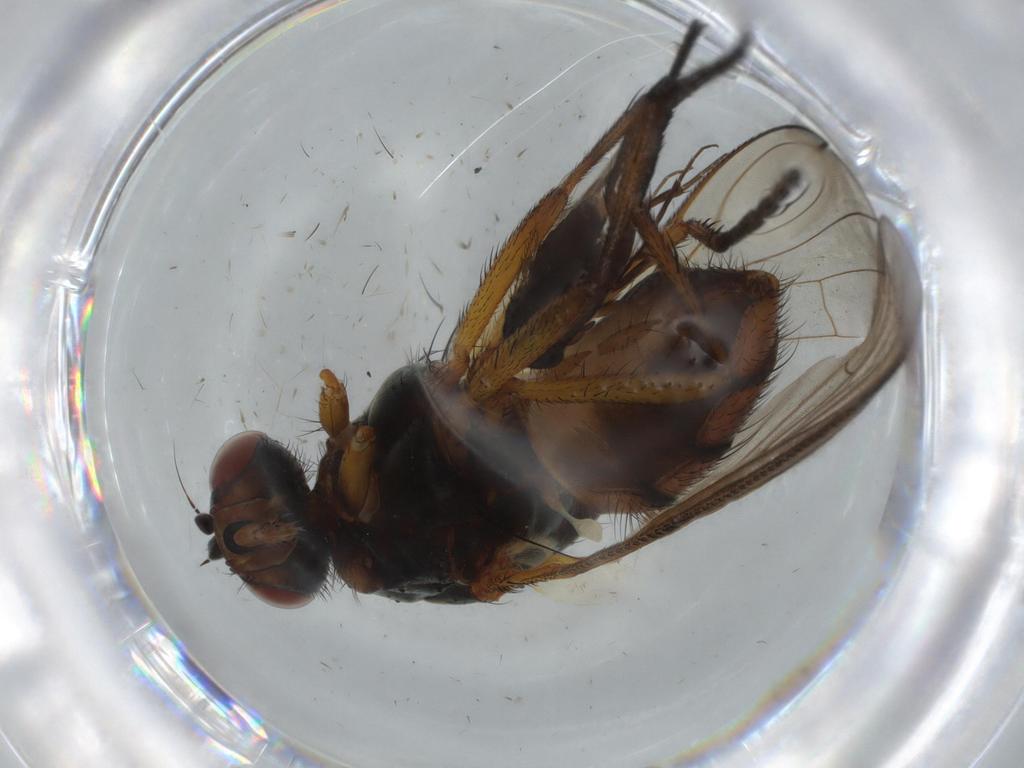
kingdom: Animalia
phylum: Arthropoda
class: Insecta
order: Diptera
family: Anthomyiidae
